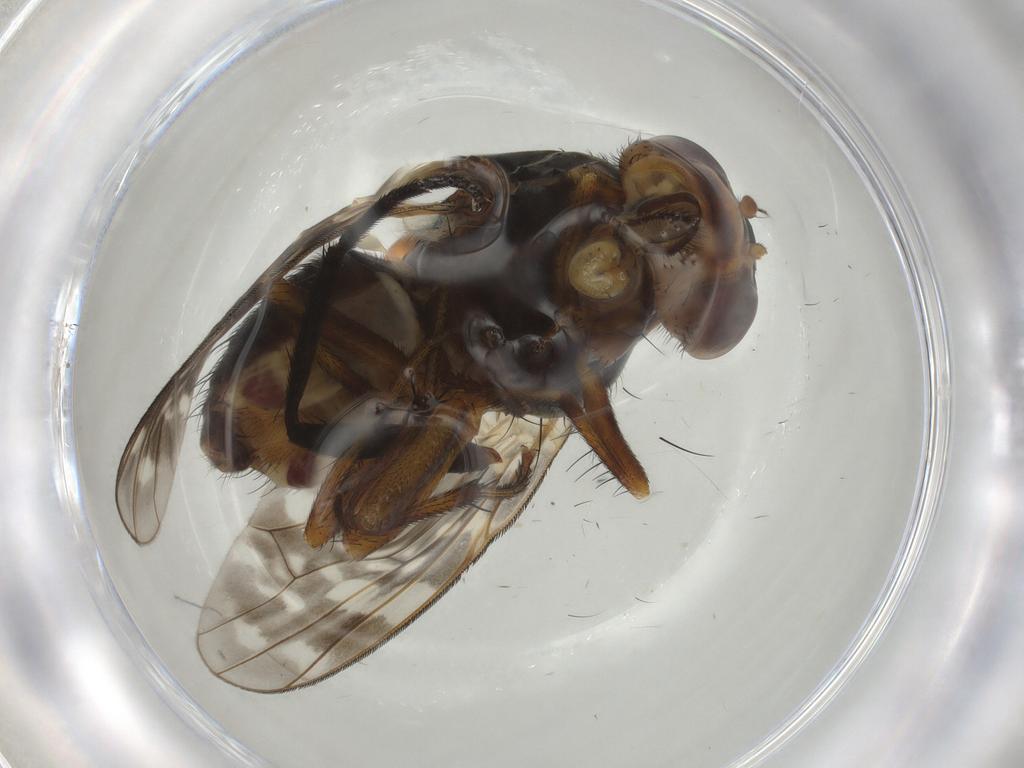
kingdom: Animalia
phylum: Arthropoda
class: Insecta
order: Diptera
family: Anthomyiidae
